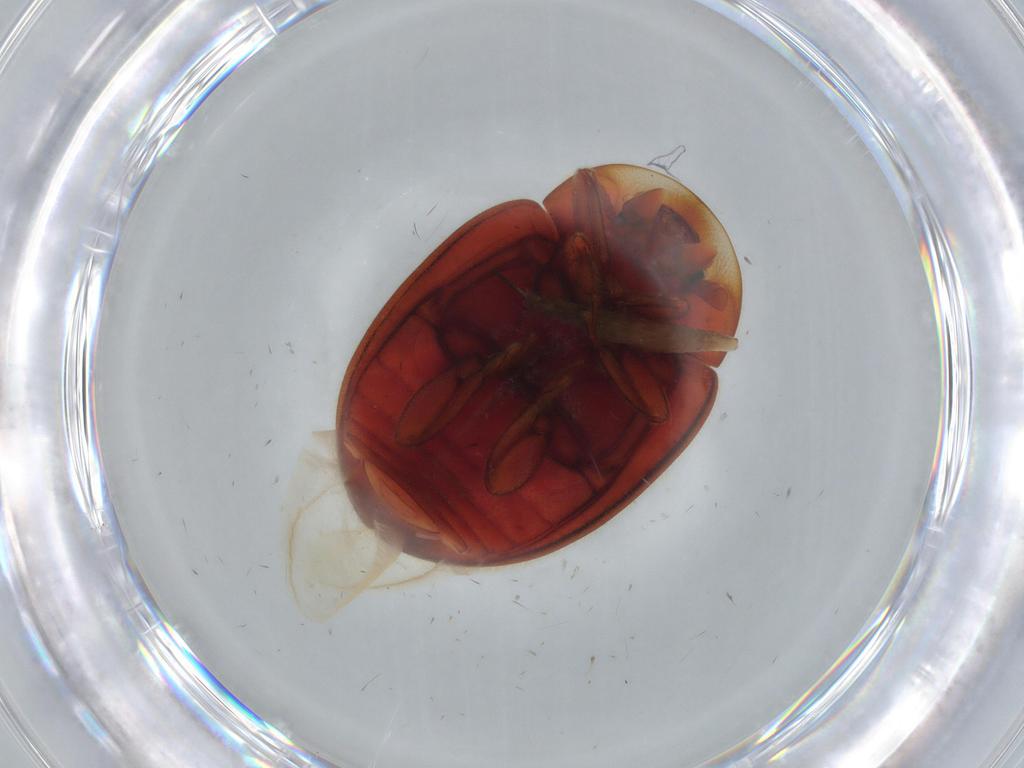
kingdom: Animalia
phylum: Arthropoda
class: Insecta
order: Coleoptera
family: Coccinellidae
